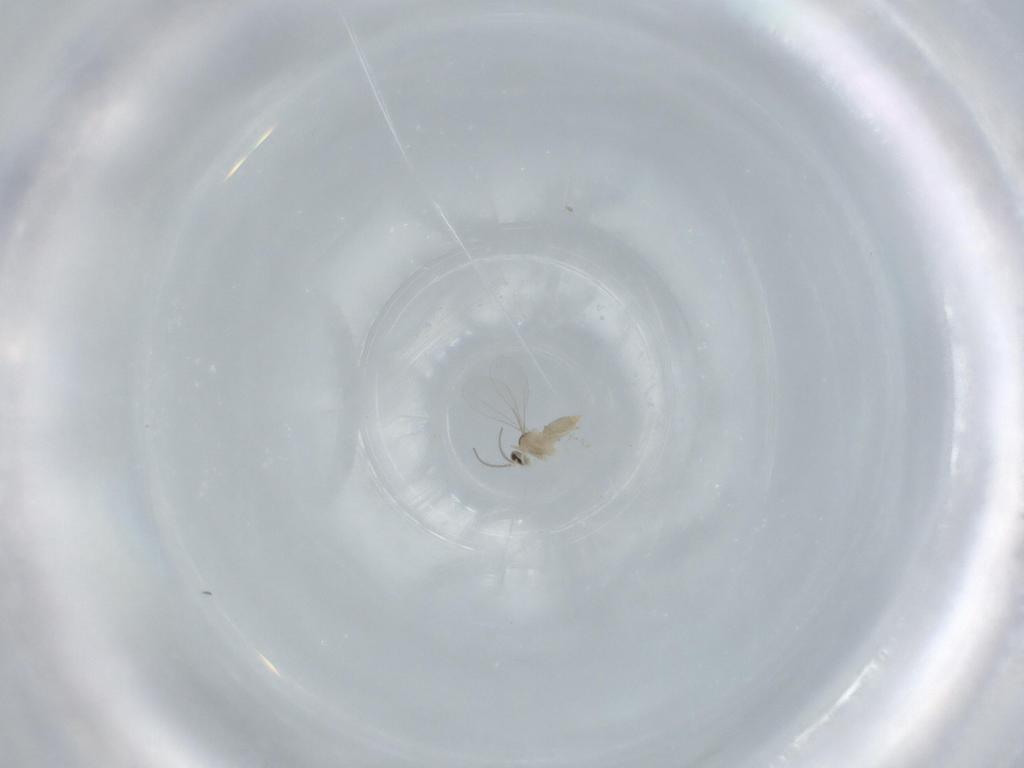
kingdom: Animalia
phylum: Arthropoda
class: Insecta
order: Diptera
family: Heleomyzidae
